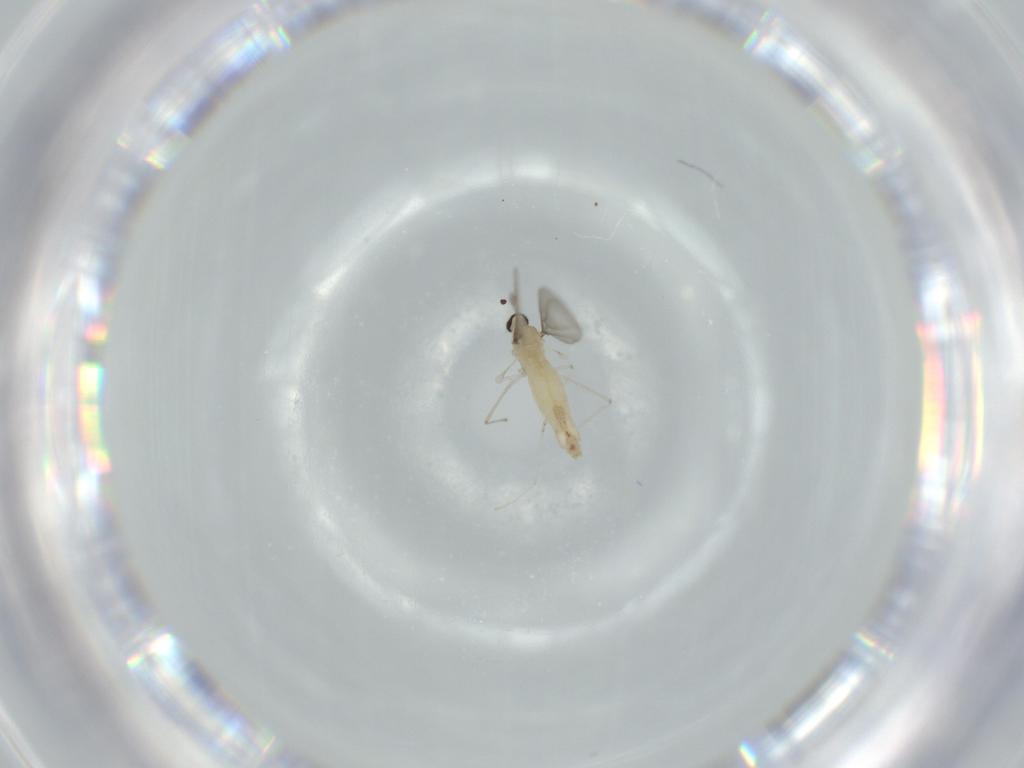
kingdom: Animalia
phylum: Arthropoda
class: Insecta
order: Diptera
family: Cecidomyiidae
